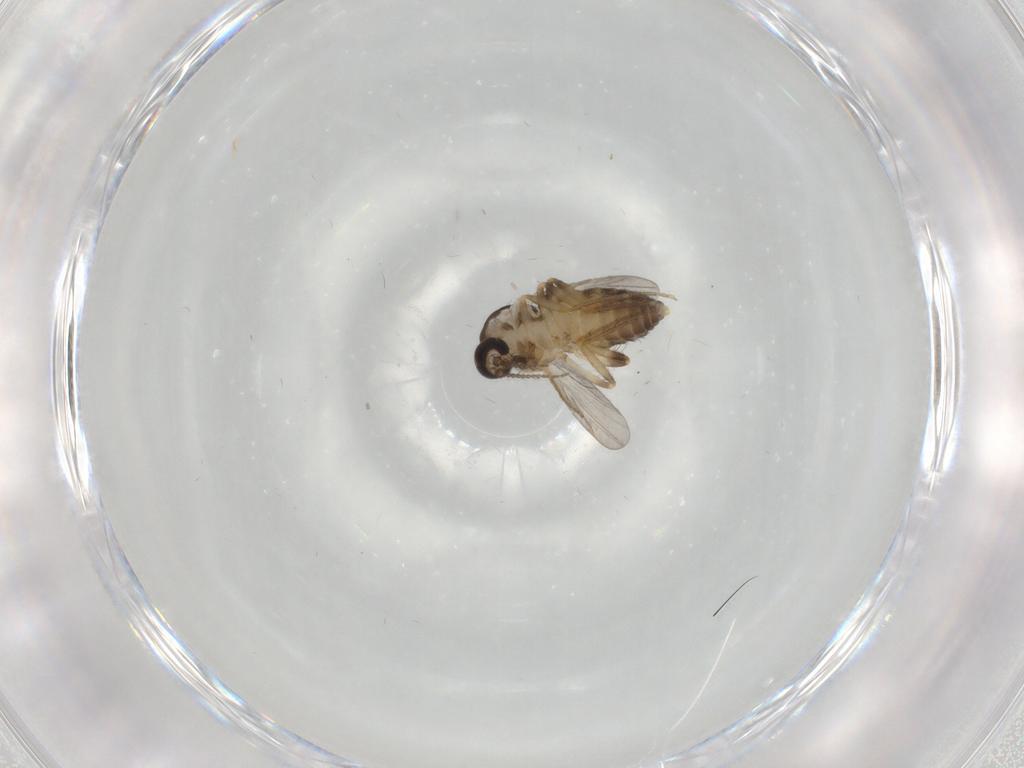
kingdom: Animalia
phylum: Arthropoda
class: Insecta
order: Diptera
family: Ceratopogonidae
